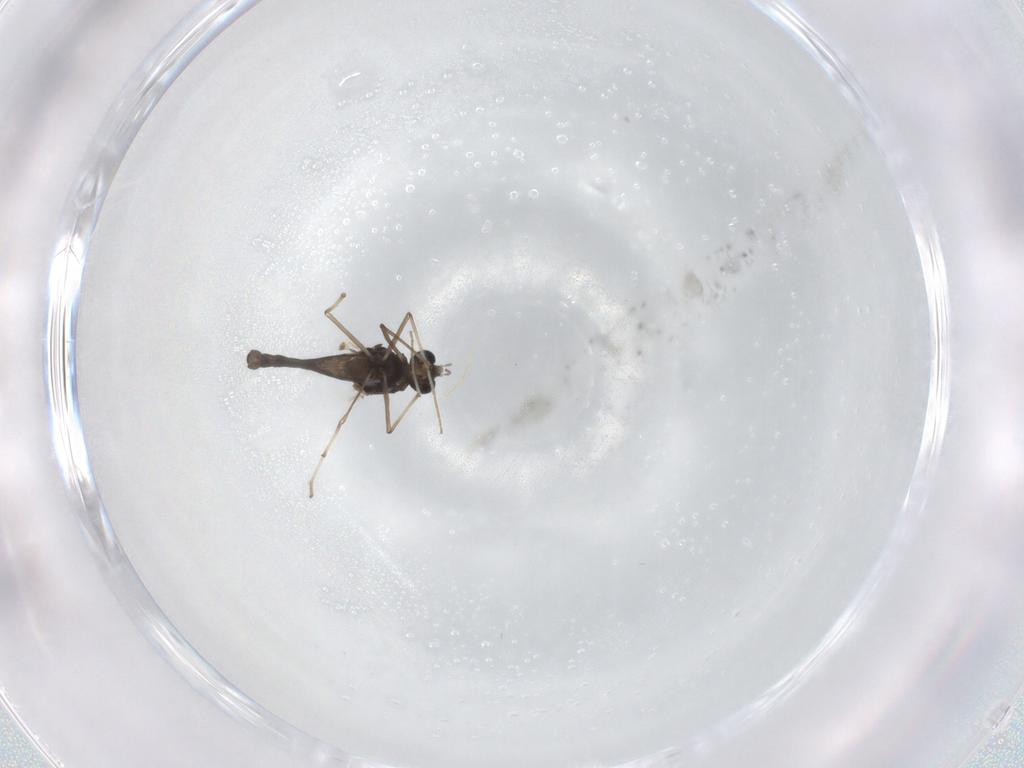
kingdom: Animalia
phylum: Arthropoda
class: Insecta
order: Diptera
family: Chironomidae
